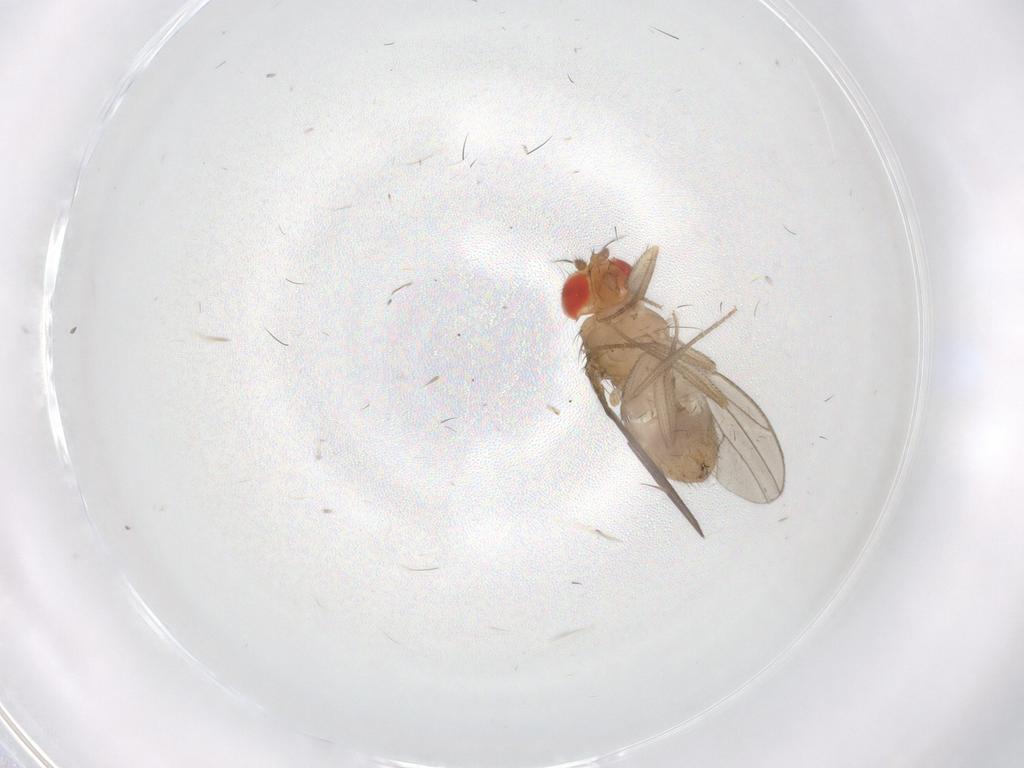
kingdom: Animalia
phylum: Arthropoda
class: Insecta
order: Diptera
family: Drosophilidae
